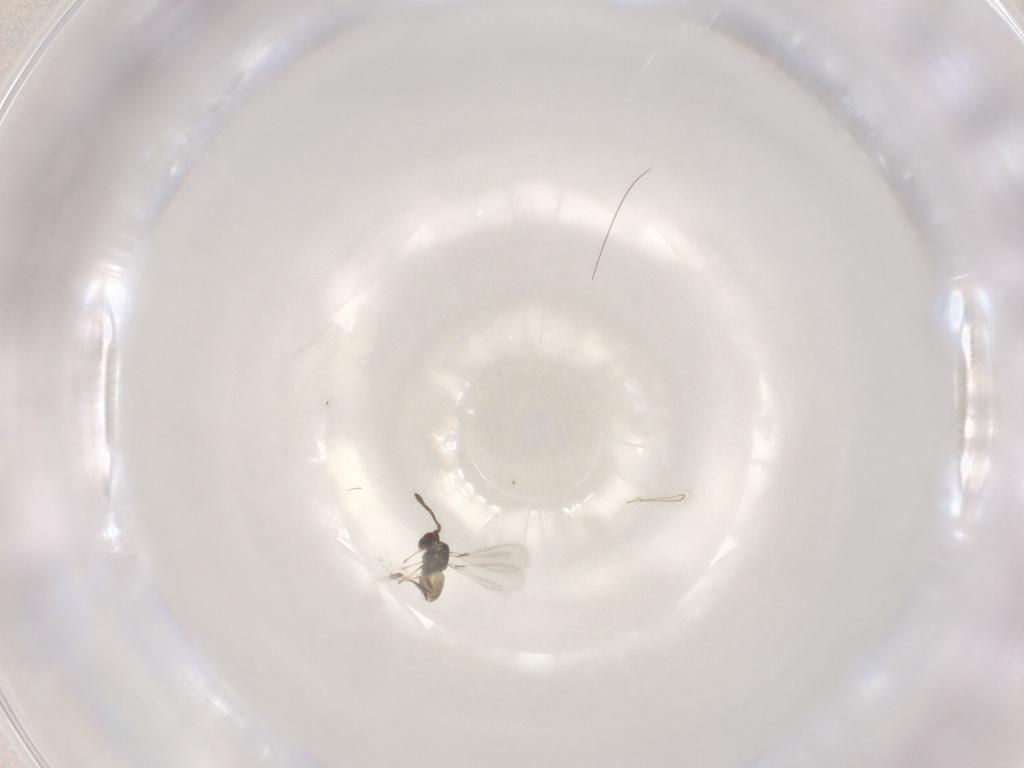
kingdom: Animalia
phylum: Arthropoda
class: Insecta
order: Hymenoptera
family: Mymaridae
